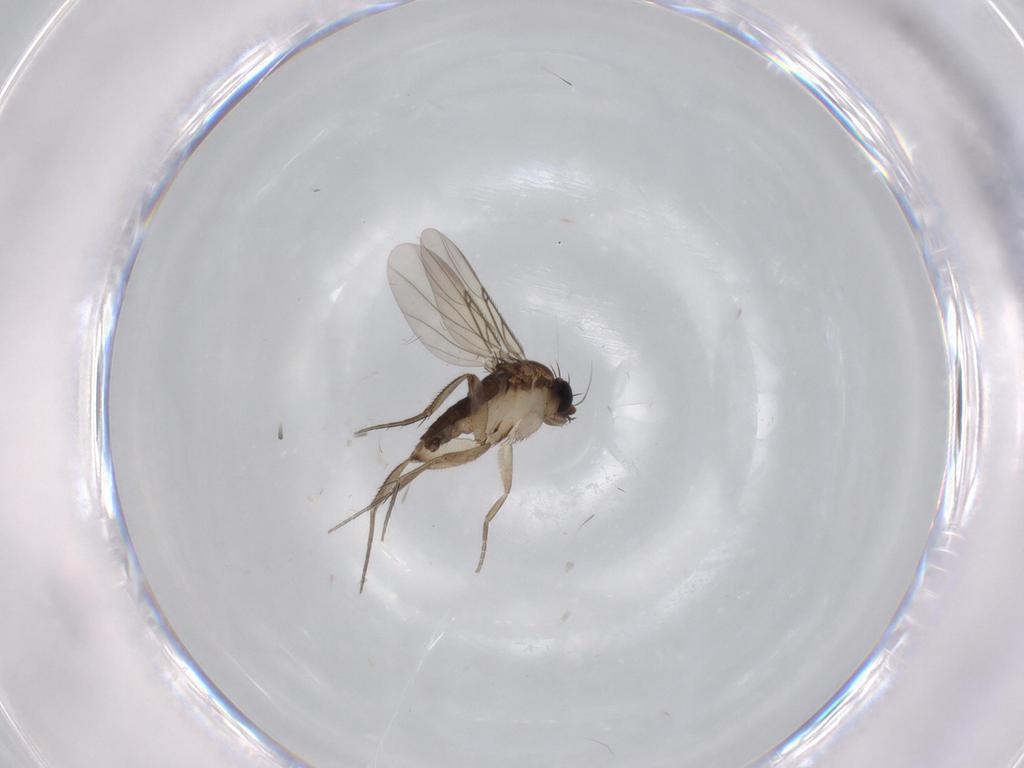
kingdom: Animalia
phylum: Arthropoda
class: Insecta
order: Diptera
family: Phoridae
